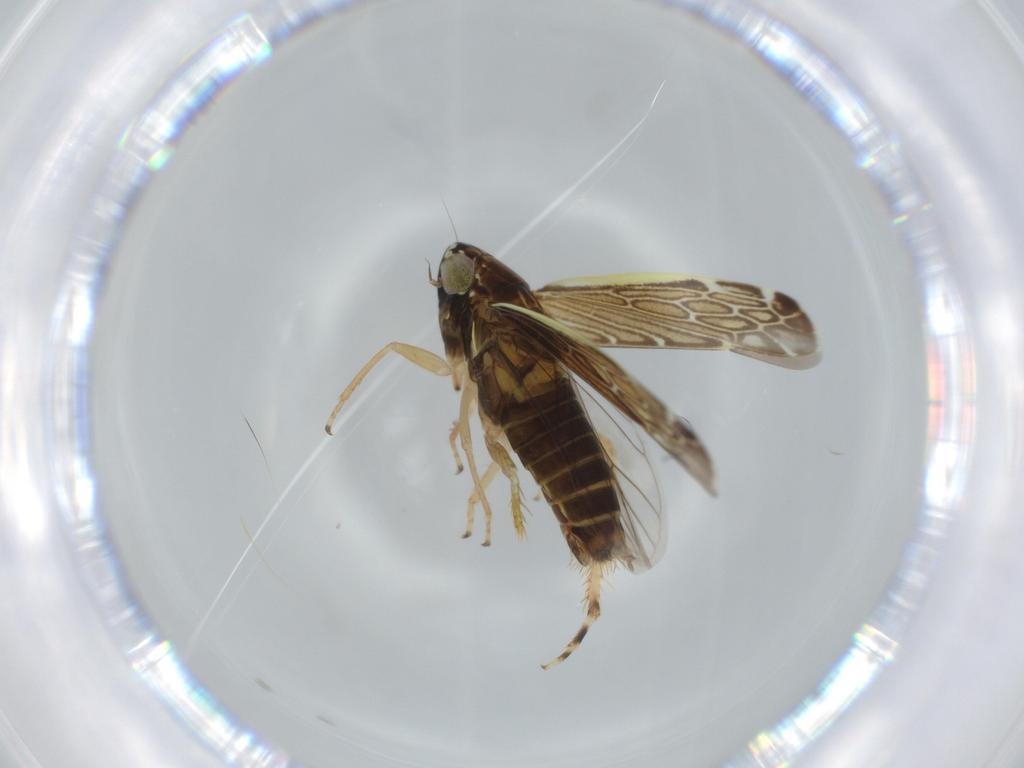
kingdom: Animalia
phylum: Arthropoda
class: Insecta
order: Hemiptera
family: Cicadellidae
